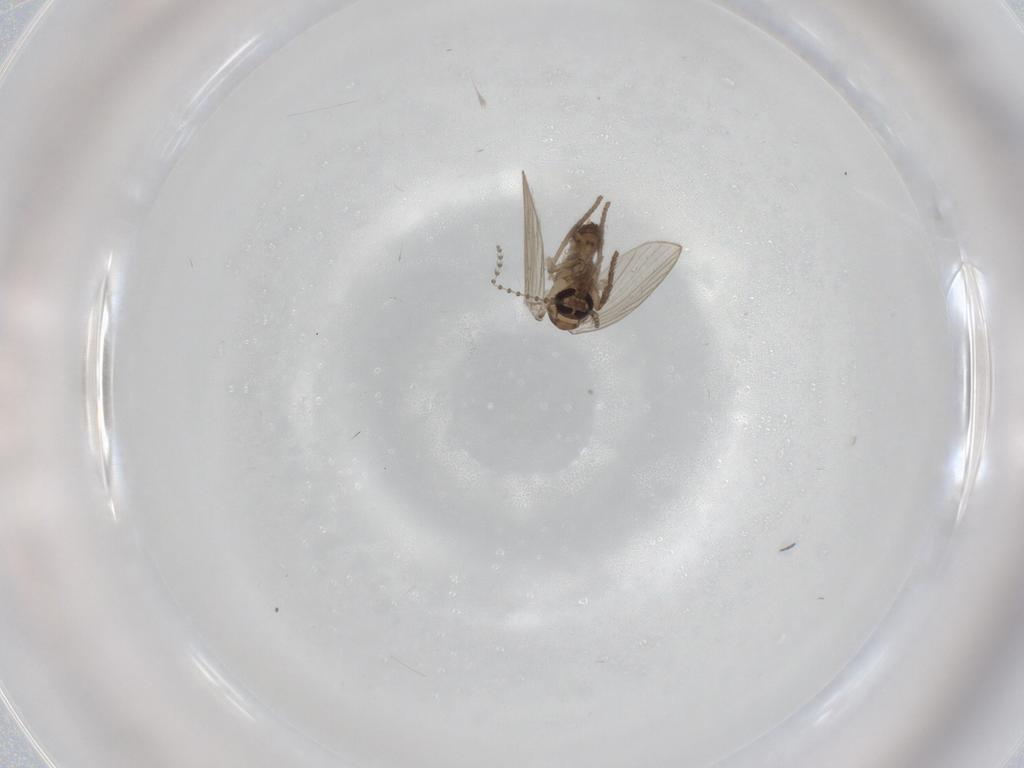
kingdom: Animalia
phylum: Arthropoda
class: Insecta
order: Diptera
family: Psychodidae
